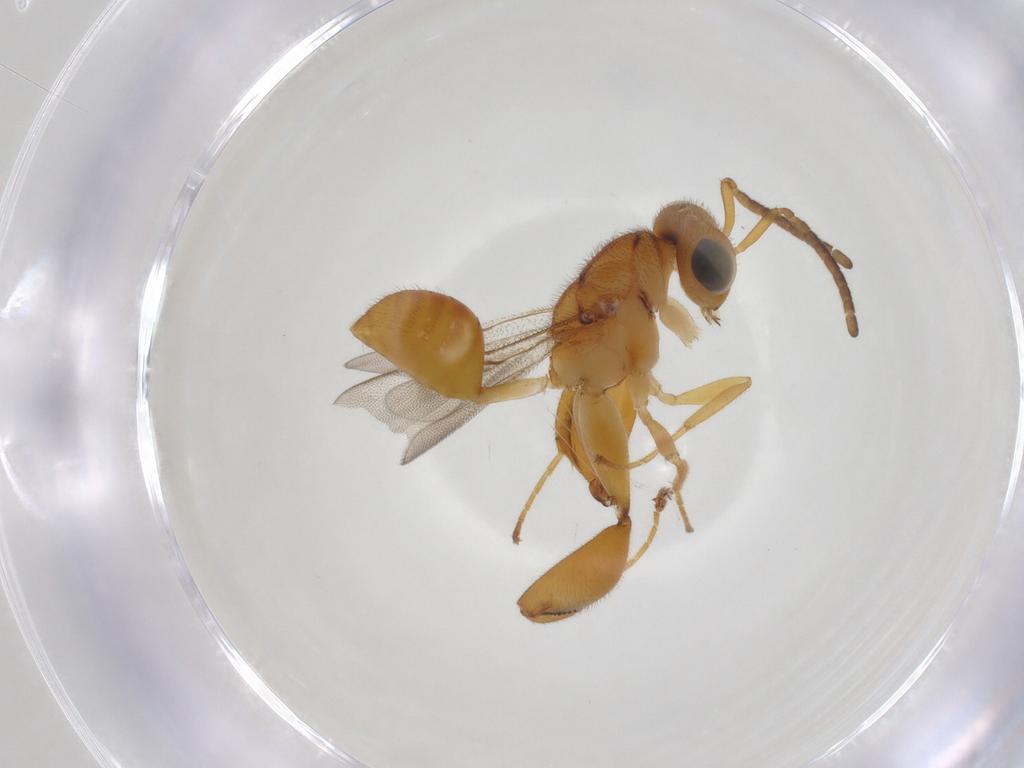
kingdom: Animalia
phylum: Arthropoda
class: Insecta
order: Hymenoptera
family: Chalcididae
